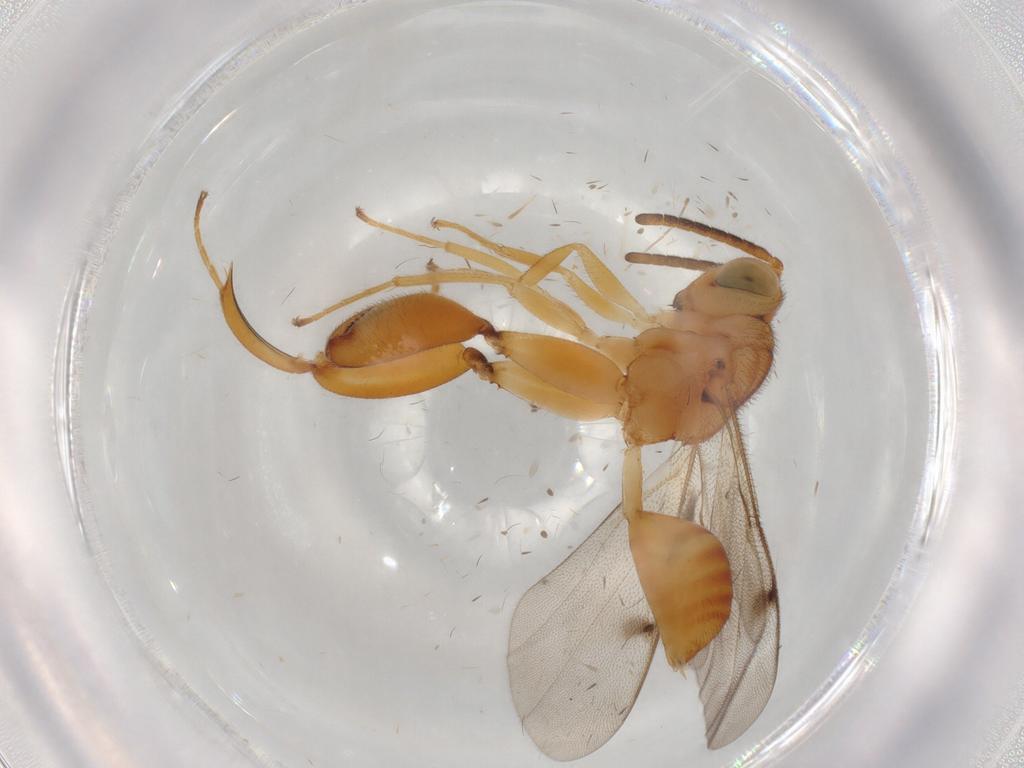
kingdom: Animalia
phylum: Arthropoda
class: Insecta
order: Hymenoptera
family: Chalcididae
